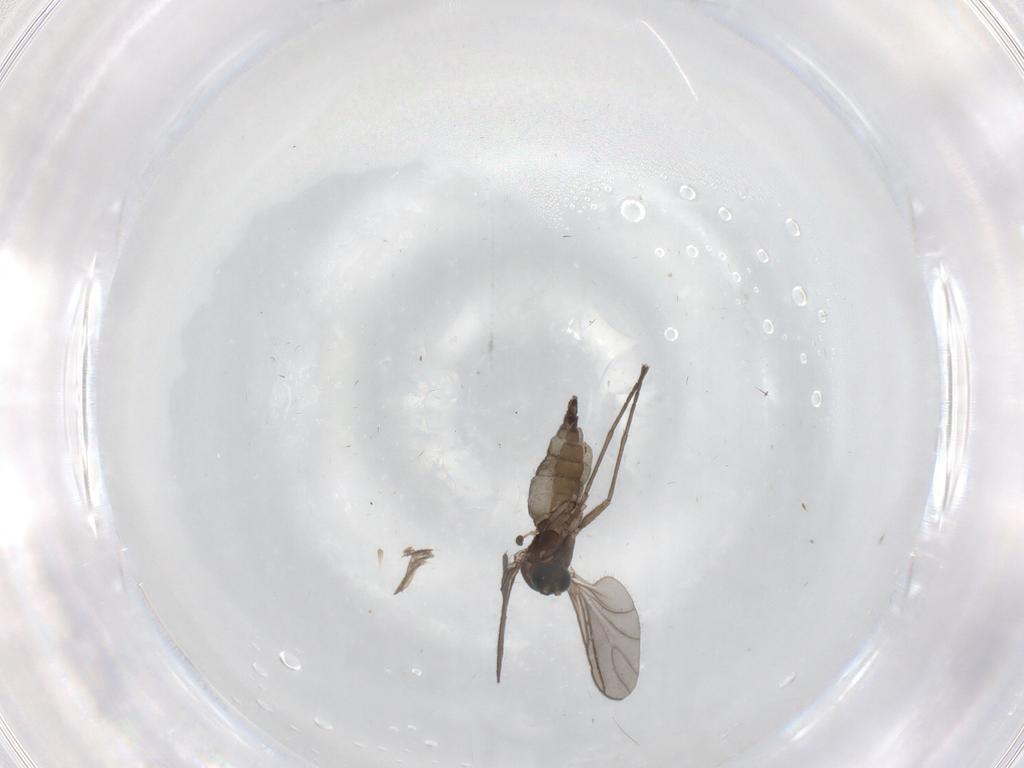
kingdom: Animalia
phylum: Arthropoda
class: Insecta
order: Diptera
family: Sciaridae
